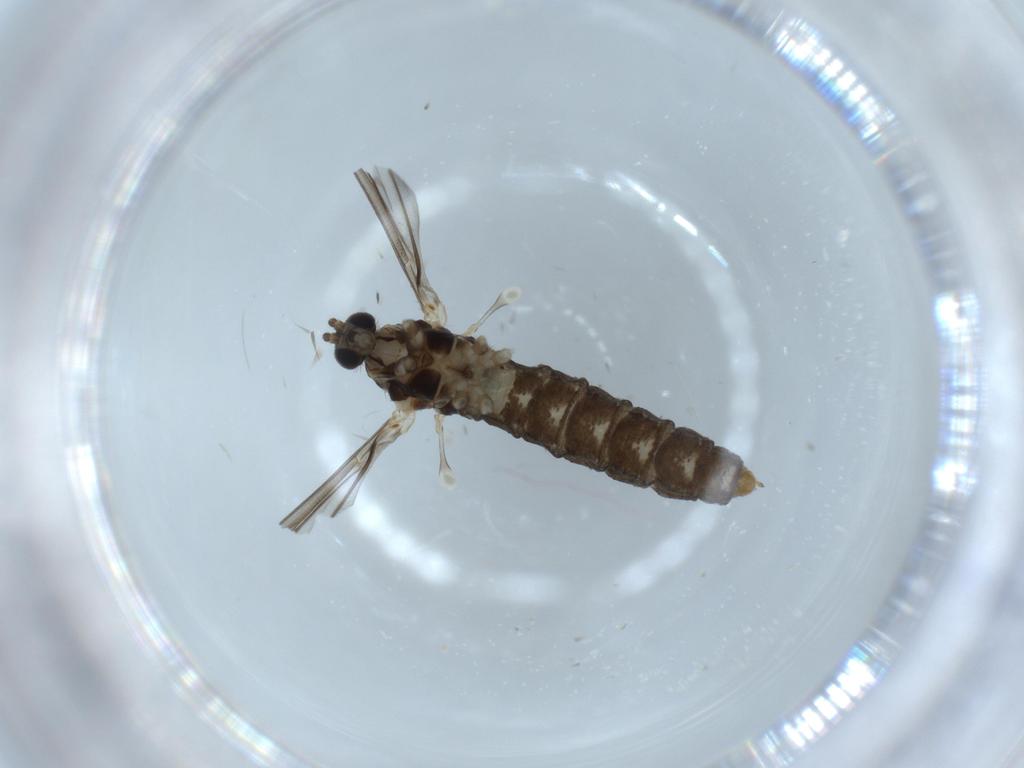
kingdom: Animalia
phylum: Arthropoda
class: Insecta
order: Diptera
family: Cecidomyiidae
